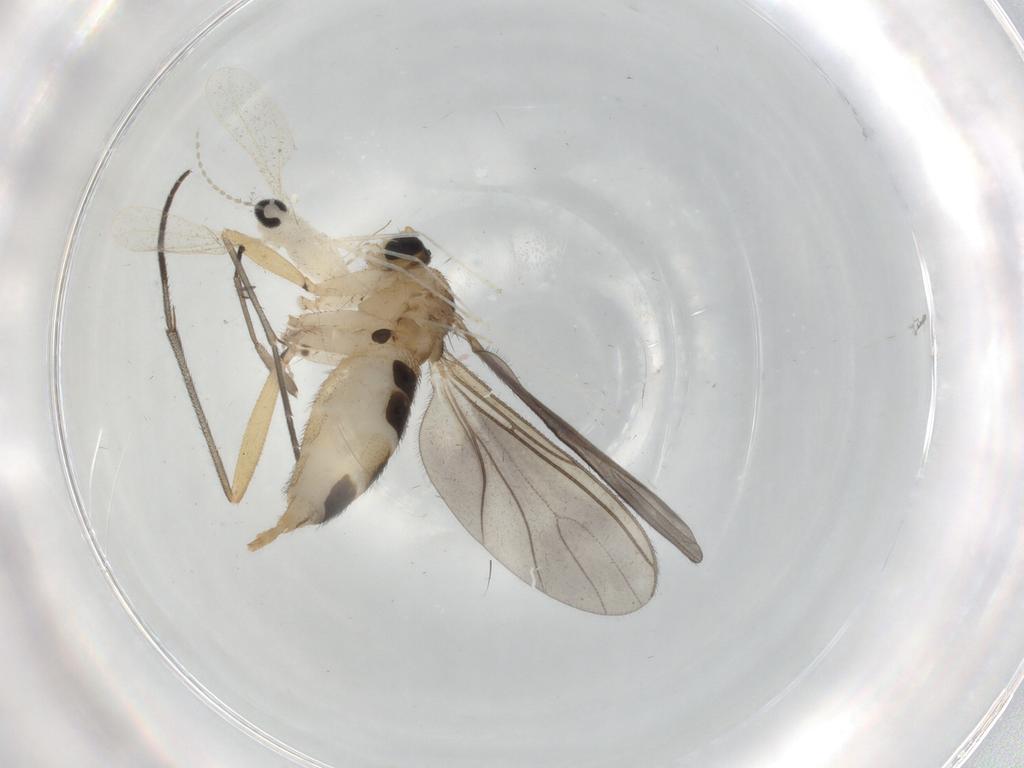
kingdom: Animalia
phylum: Arthropoda
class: Insecta
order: Diptera
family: Sciaridae
